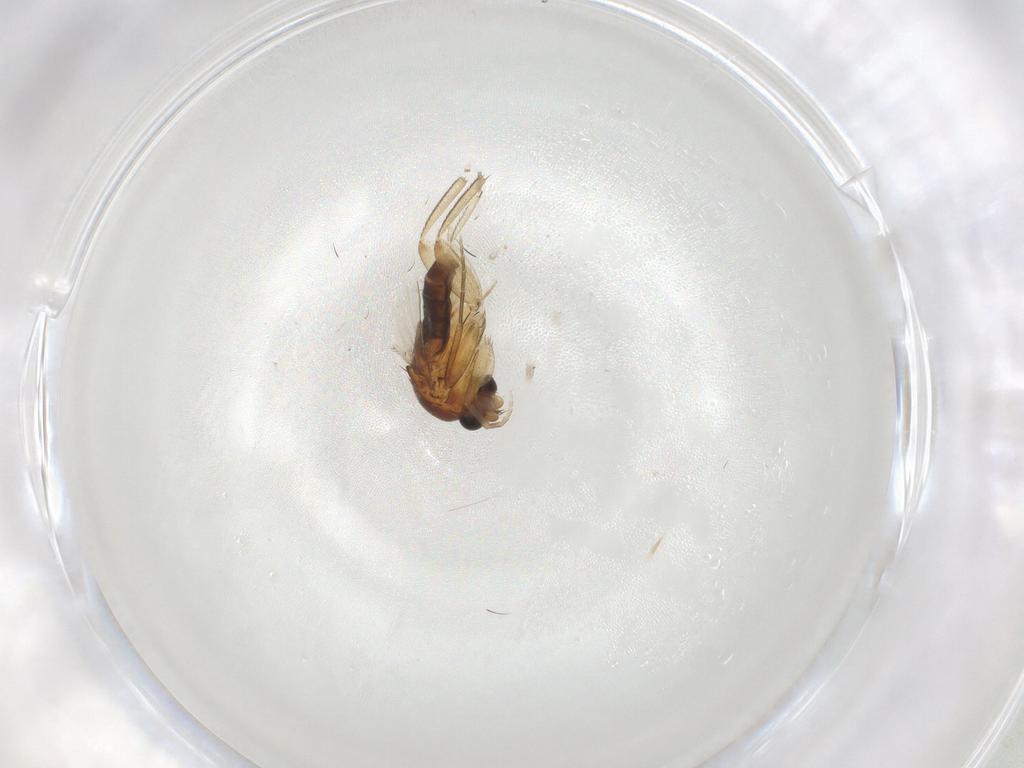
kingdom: Animalia
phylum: Arthropoda
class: Insecta
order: Diptera
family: Phoridae
